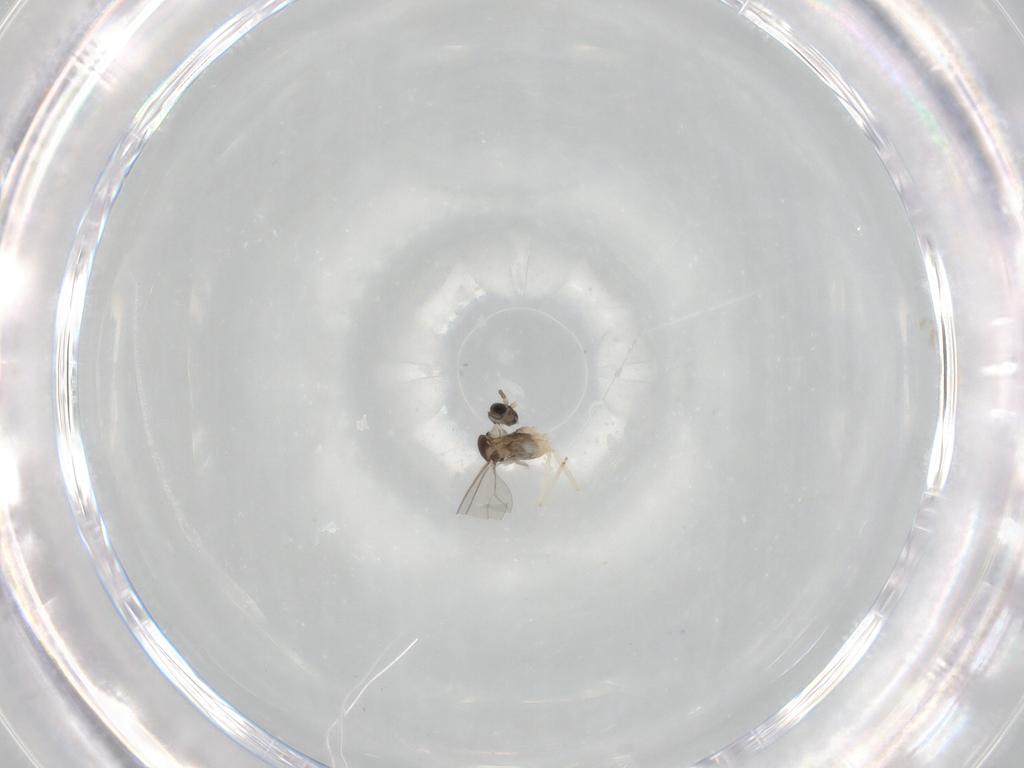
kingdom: Animalia
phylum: Arthropoda
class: Insecta
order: Diptera
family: Cecidomyiidae
